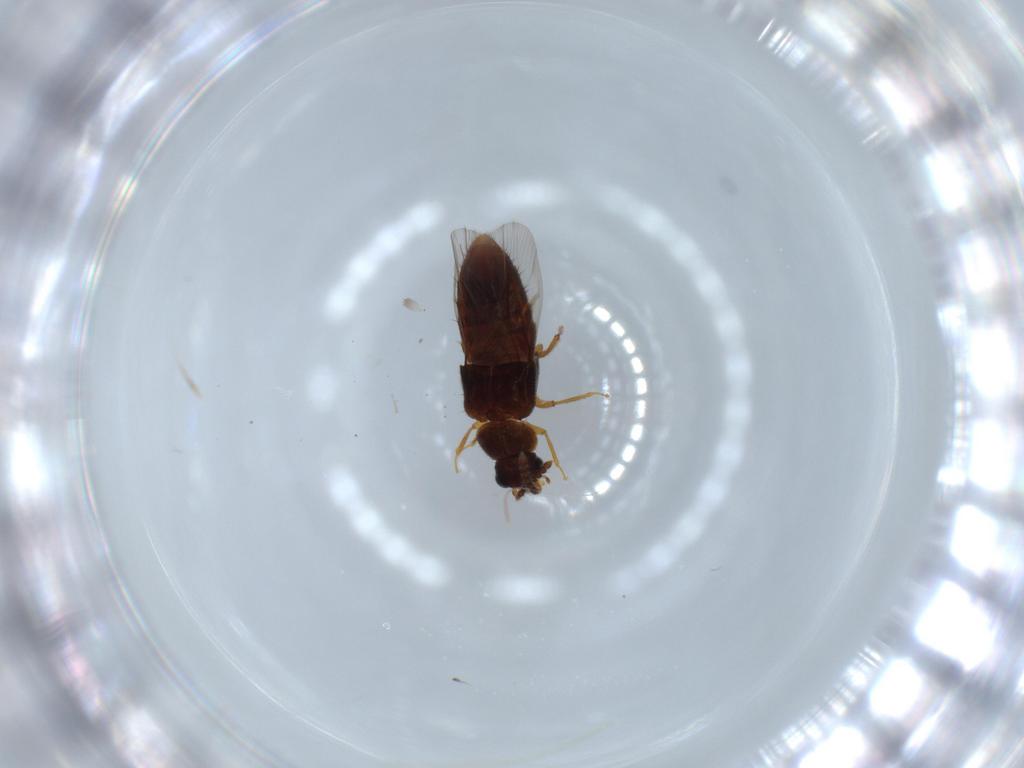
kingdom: Animalia
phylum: Arthropoda
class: Insecta
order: Coleoptera
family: Staphylinidae
